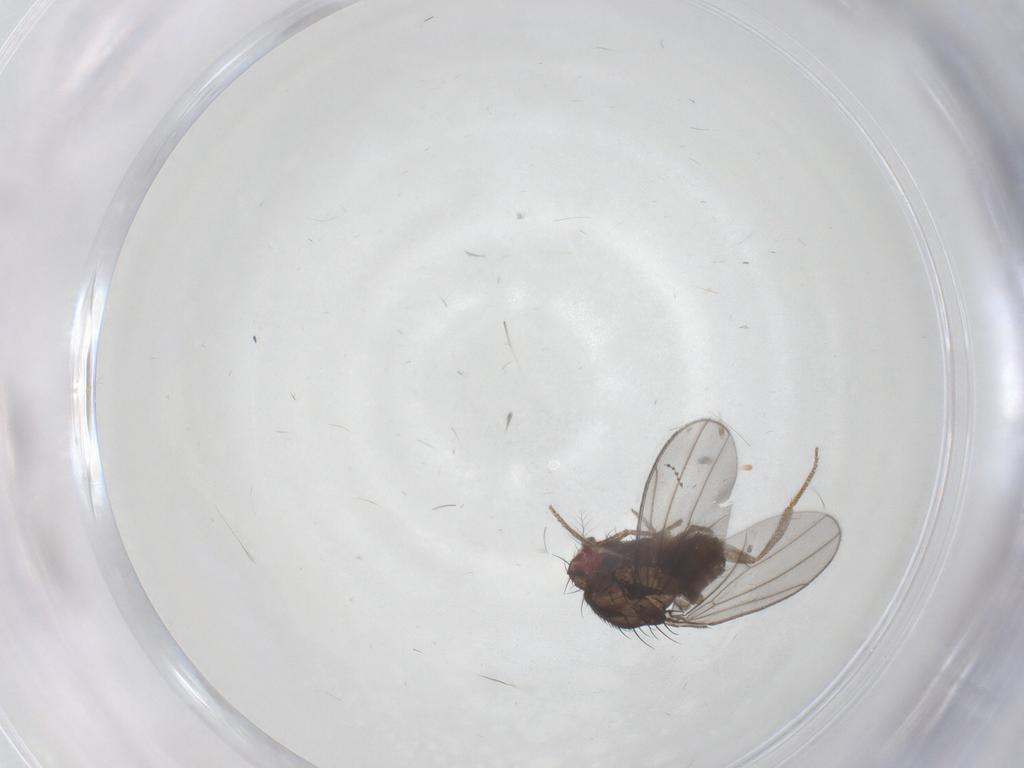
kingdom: Animalia
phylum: Arthropoda
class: Insecta
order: Diptera
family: Drosophilidae
